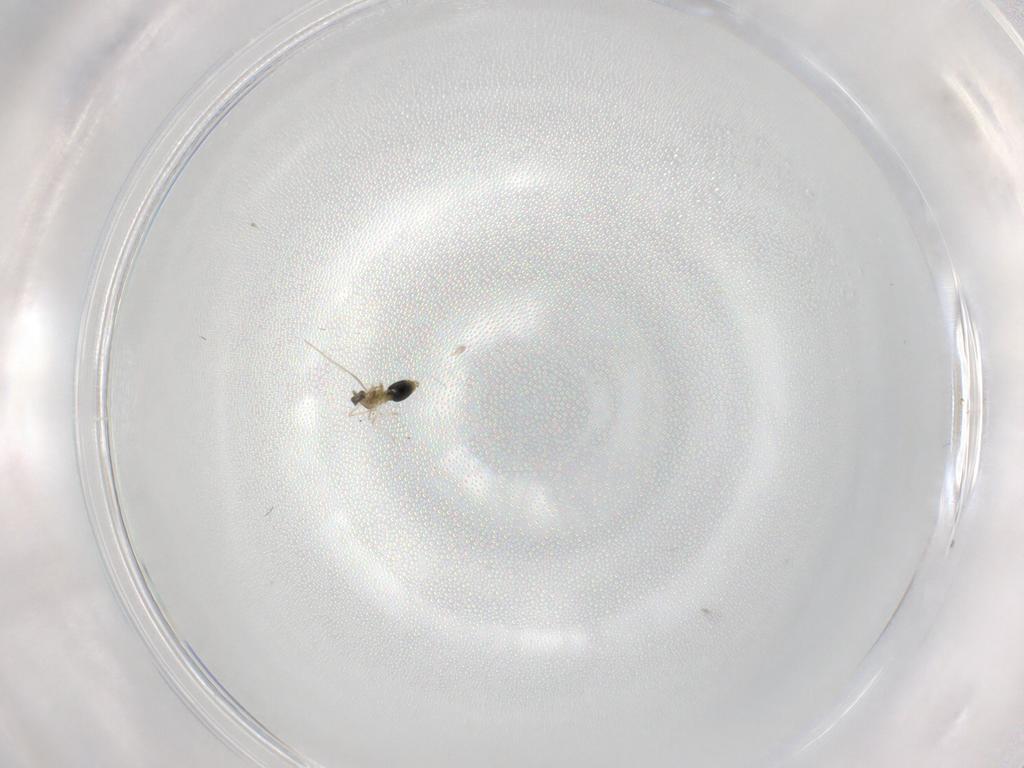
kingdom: Animalia
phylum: Arthropoda
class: Insecta
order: Diptera
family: Cecidomyiidae
